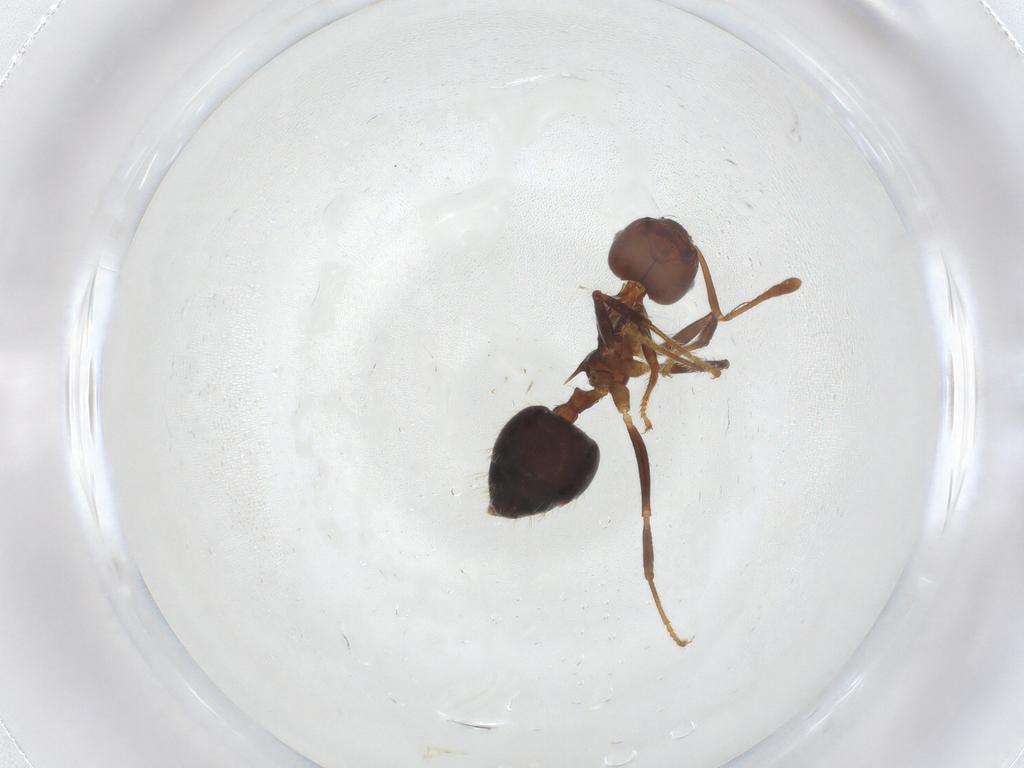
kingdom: Animalia
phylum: Arthropoda
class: Insecta
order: Hymenoptera
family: Formicidae
